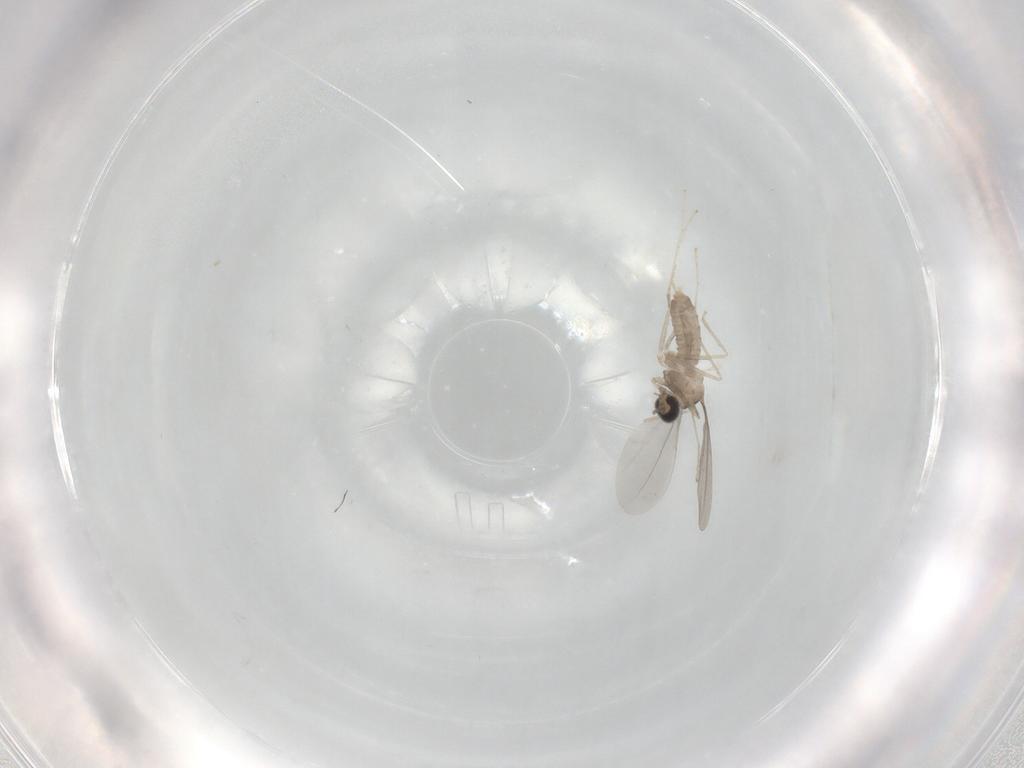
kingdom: Animalia
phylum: Arthropoda
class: Insecta
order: Diptera
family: Cecidomyiidae
